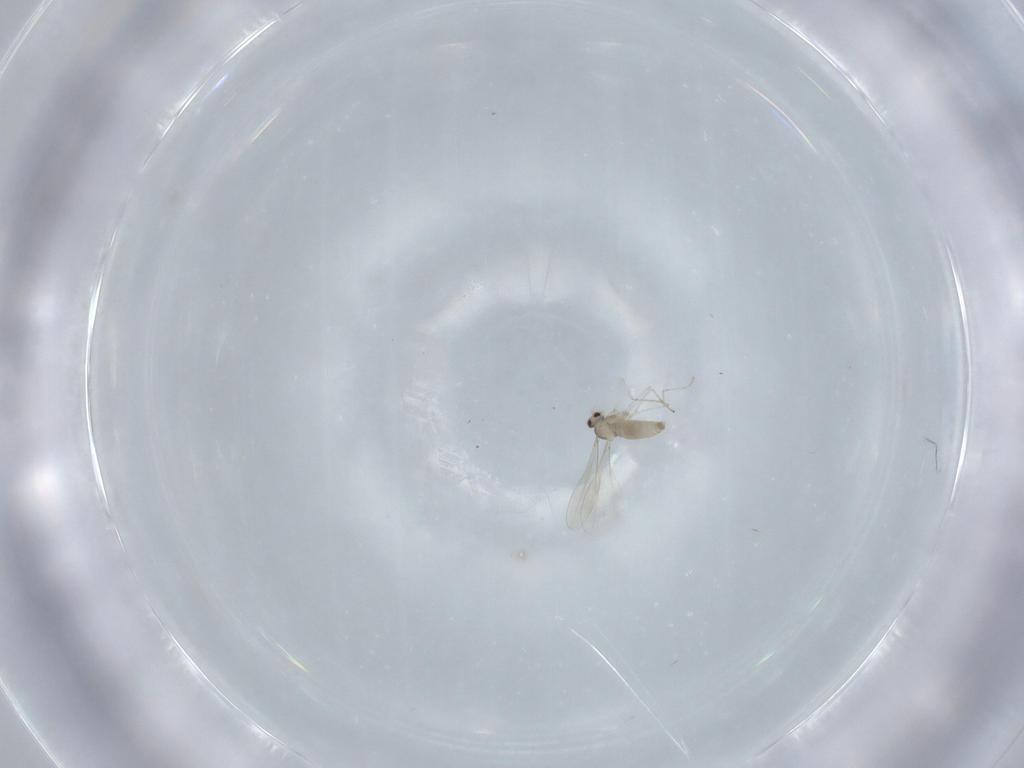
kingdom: Animalia
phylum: Arthropoda
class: Insecta
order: Diptera
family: Cecidomyiidae
